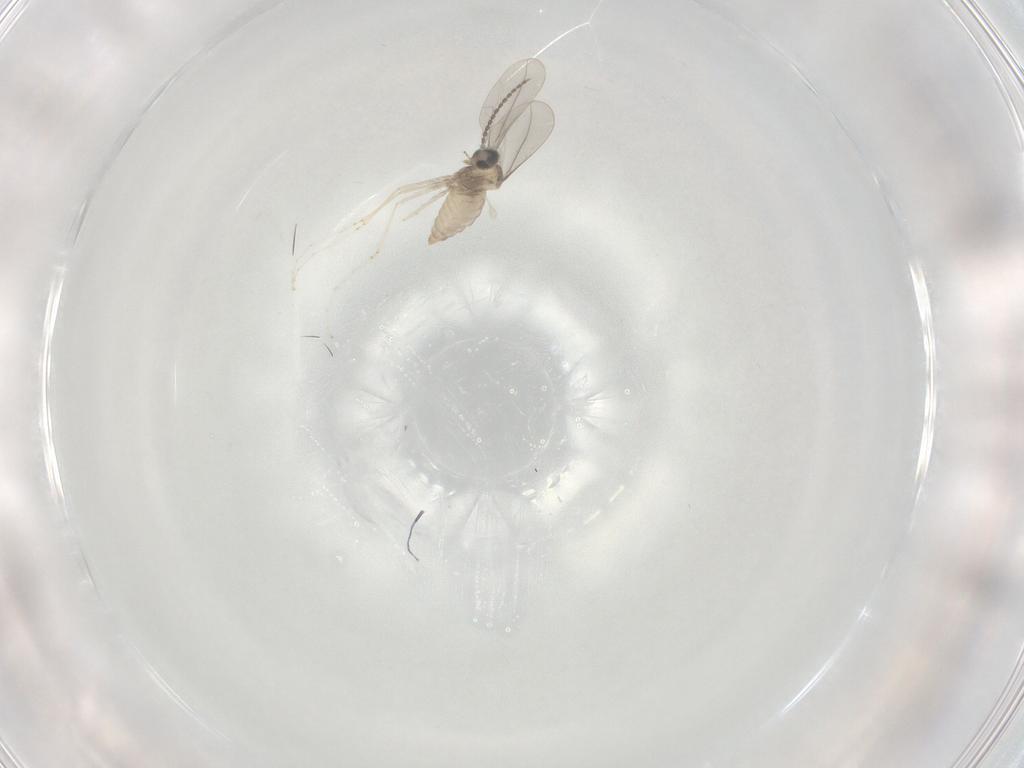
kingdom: Animalia
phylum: Arthropoda
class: Insecta
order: Diptera
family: Cecidomyiidae
